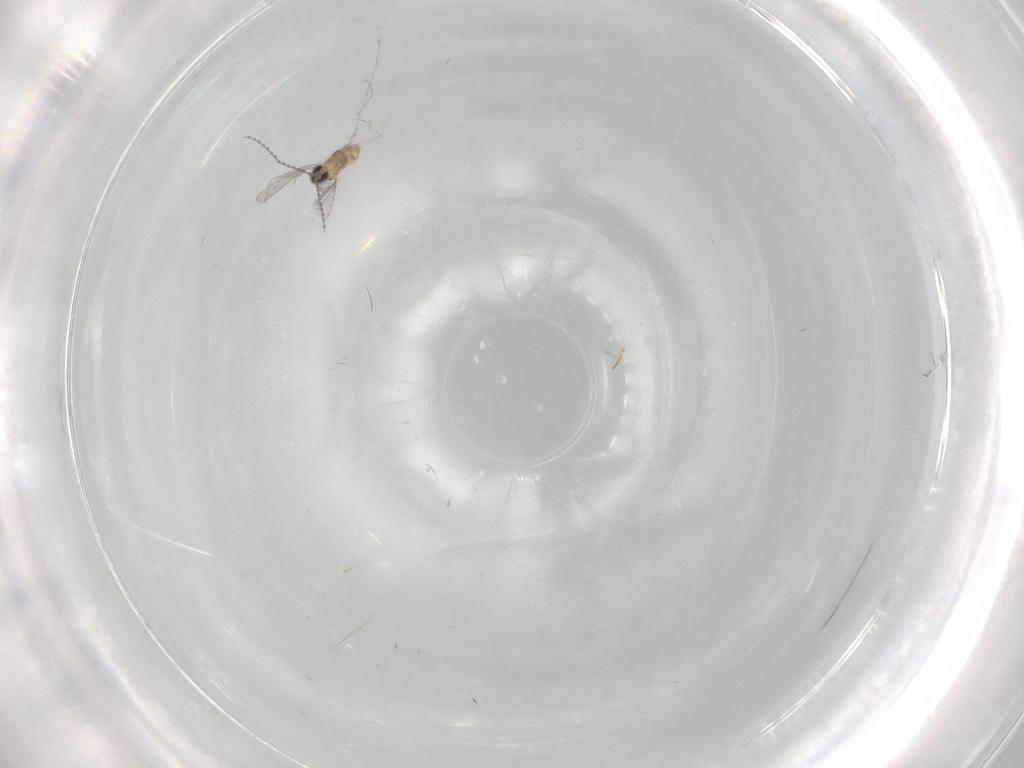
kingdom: Animalia
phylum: Arthropoda
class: Insecta
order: Diptera
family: Cecidomyiidae
